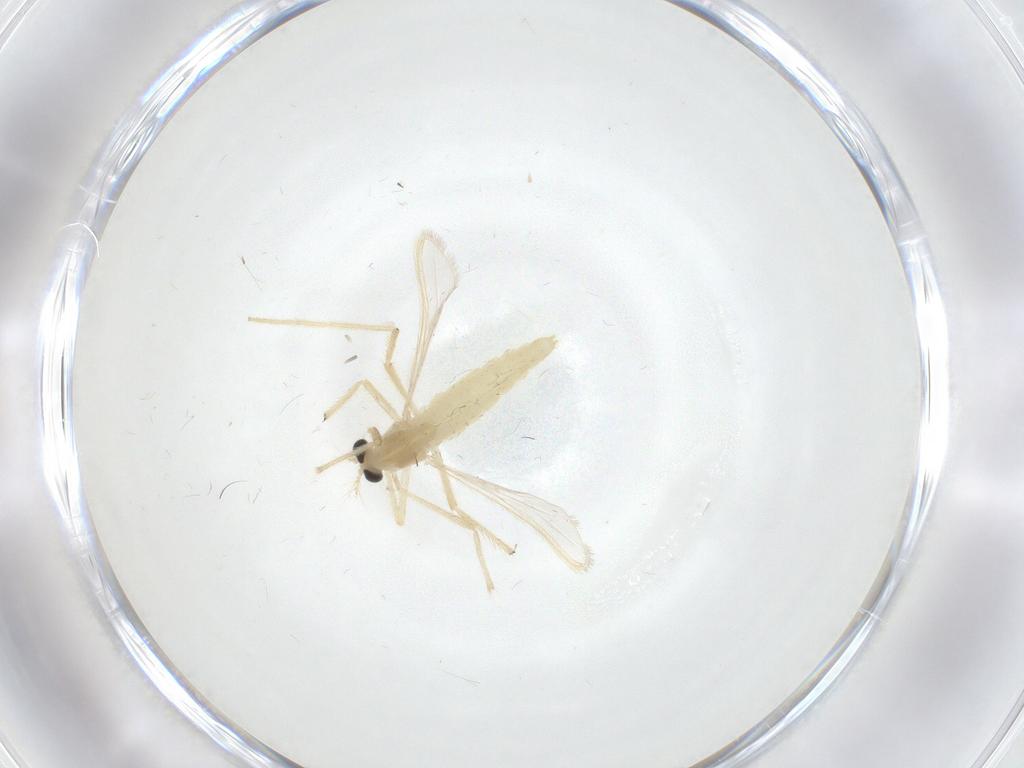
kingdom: Animalia
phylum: Arthropoda
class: Insecta
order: Diptera
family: Chironomidae
